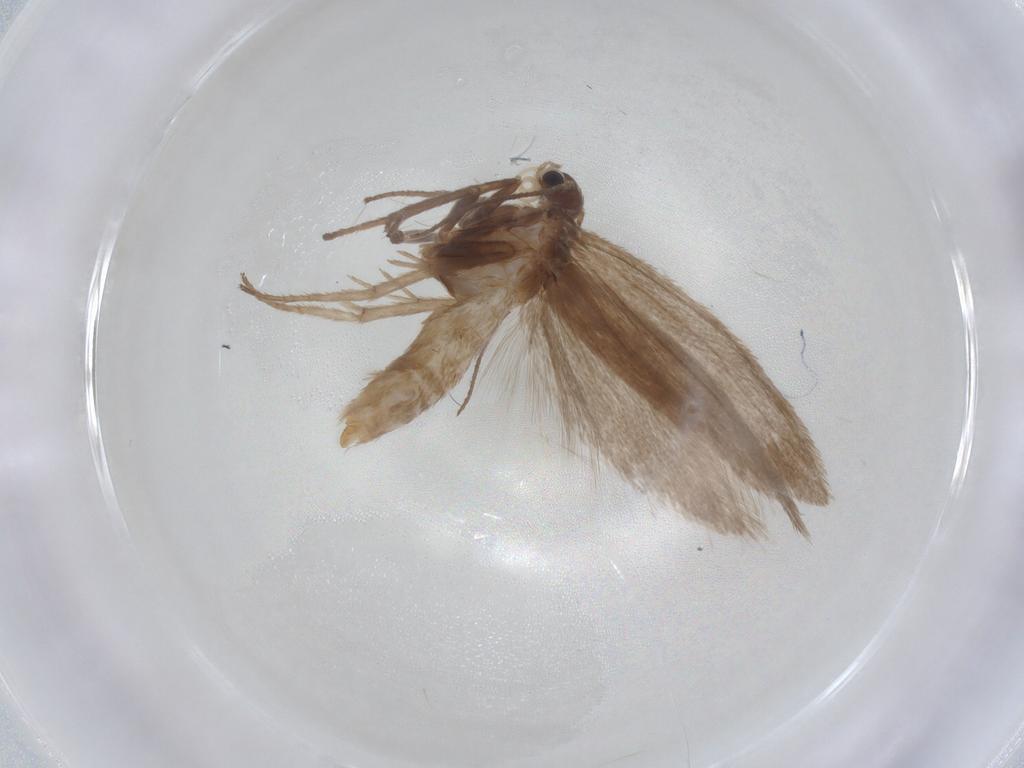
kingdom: Animalia
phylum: Arthropoda
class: Insecta
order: Lepidoptera
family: Limacodidae
